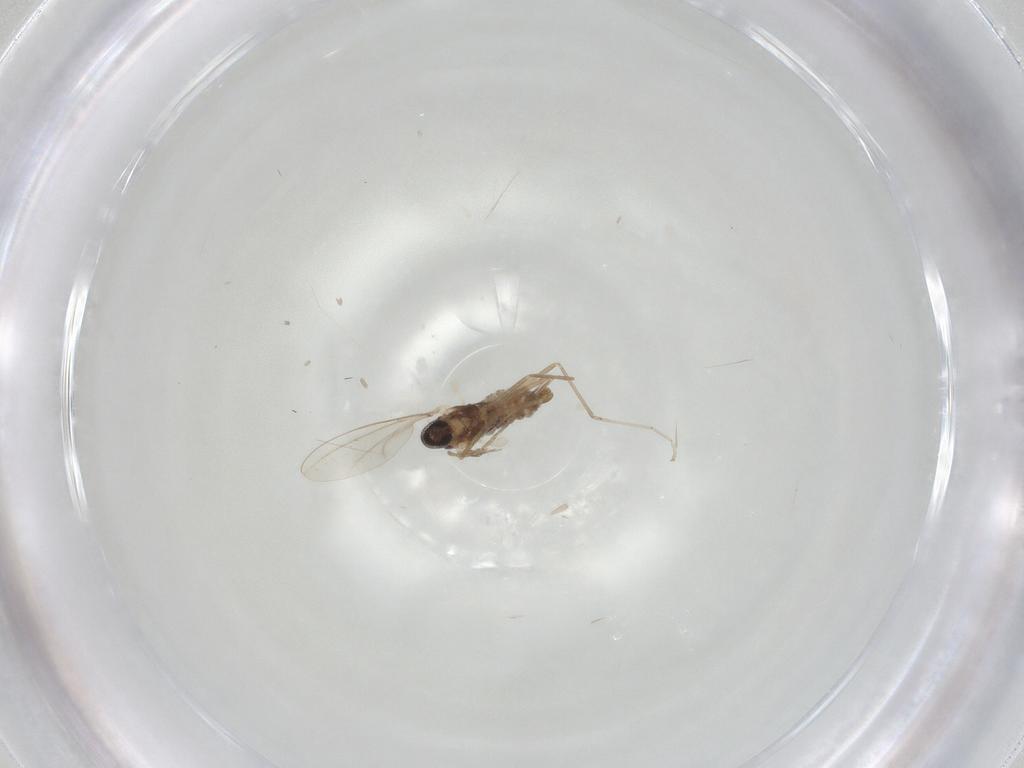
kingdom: Animalia
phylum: Arthropoda
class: Insecta
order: Diptera
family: Cecidomyiidae
